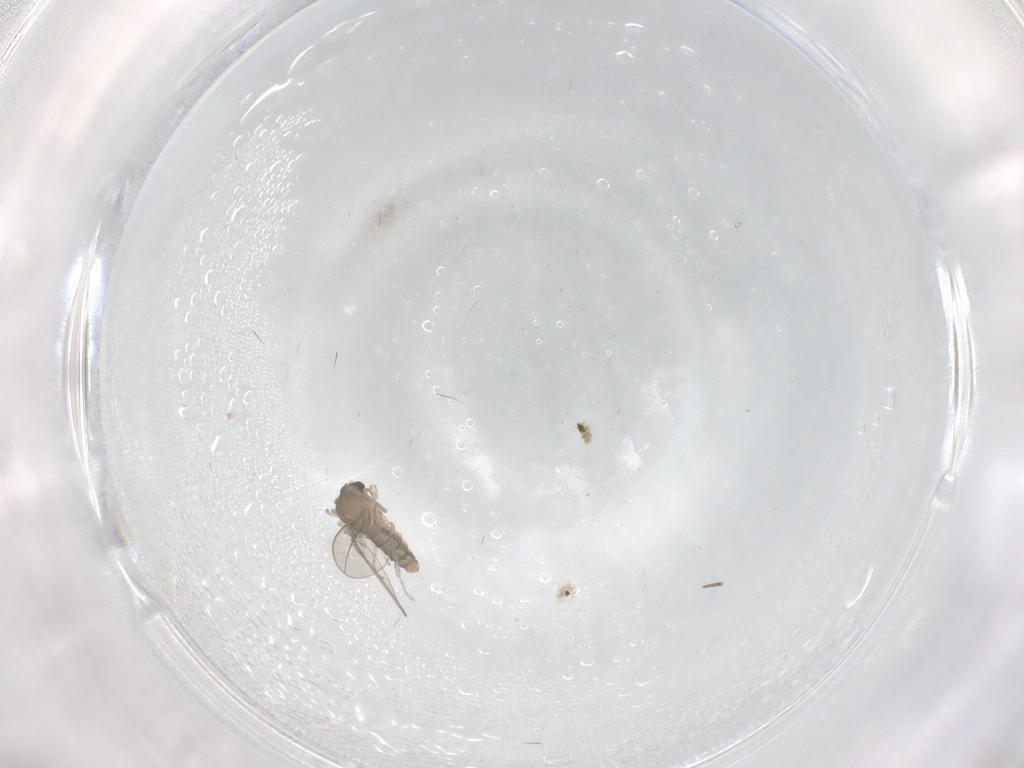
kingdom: Animalia
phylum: Arthropoda
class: Insecta
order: Diptera
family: Cecidomyiidae
